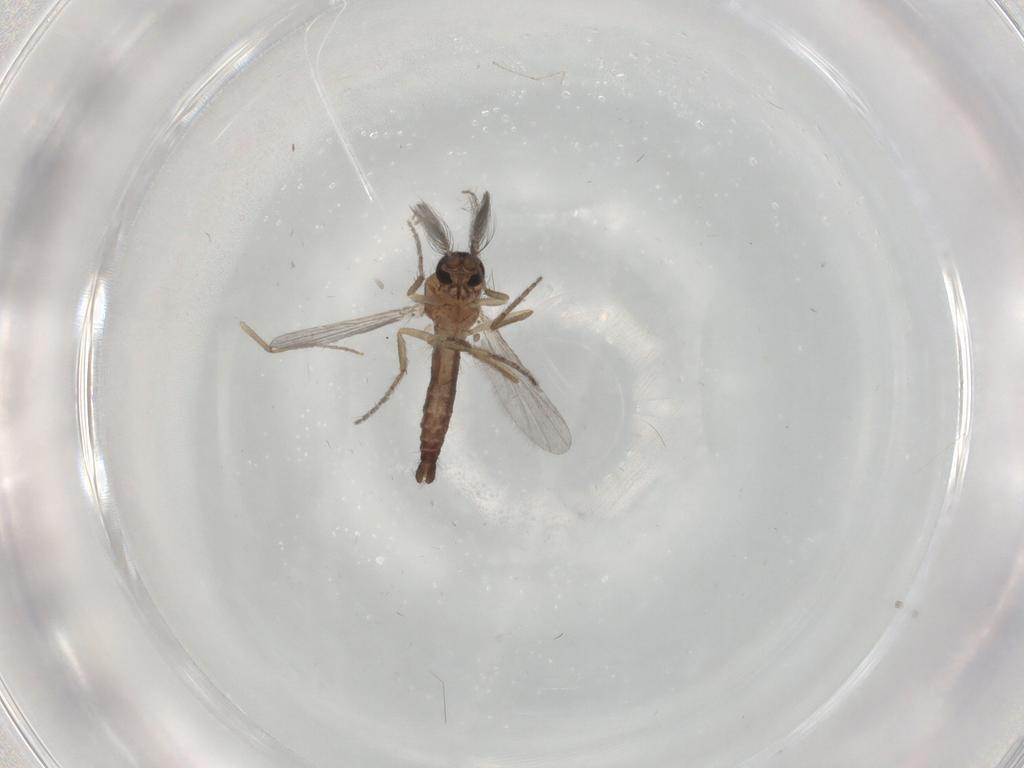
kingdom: Animalia
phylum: Arthropoda
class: Insecta
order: Diptera
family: Ceratopogonidae
